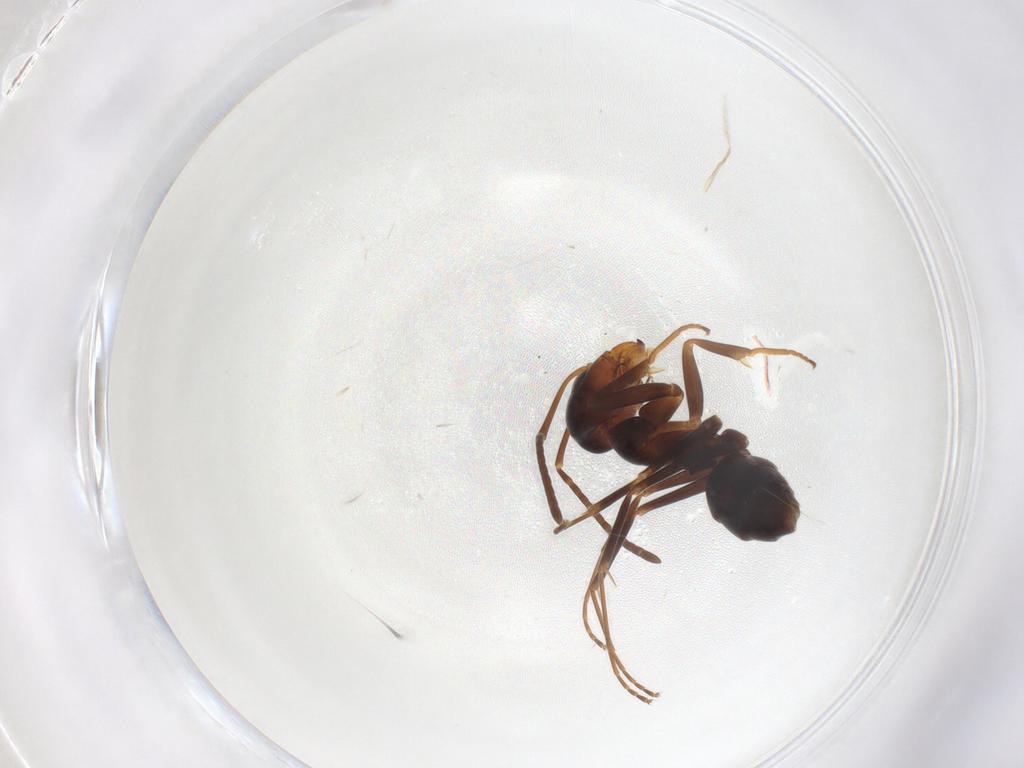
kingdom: Animalia
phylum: Arthropoda
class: Insecta
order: Hymenoptera
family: Formicidae
